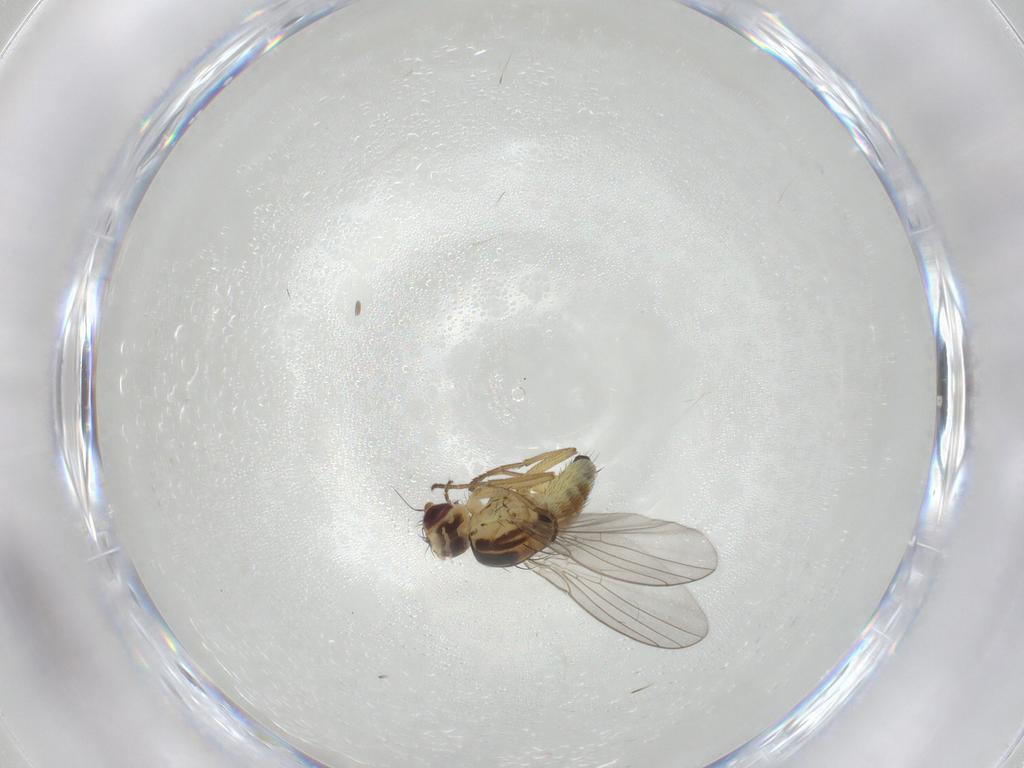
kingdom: Animalia
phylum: Arthropoda
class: Insecta
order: Diptera
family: Agromyzidae
